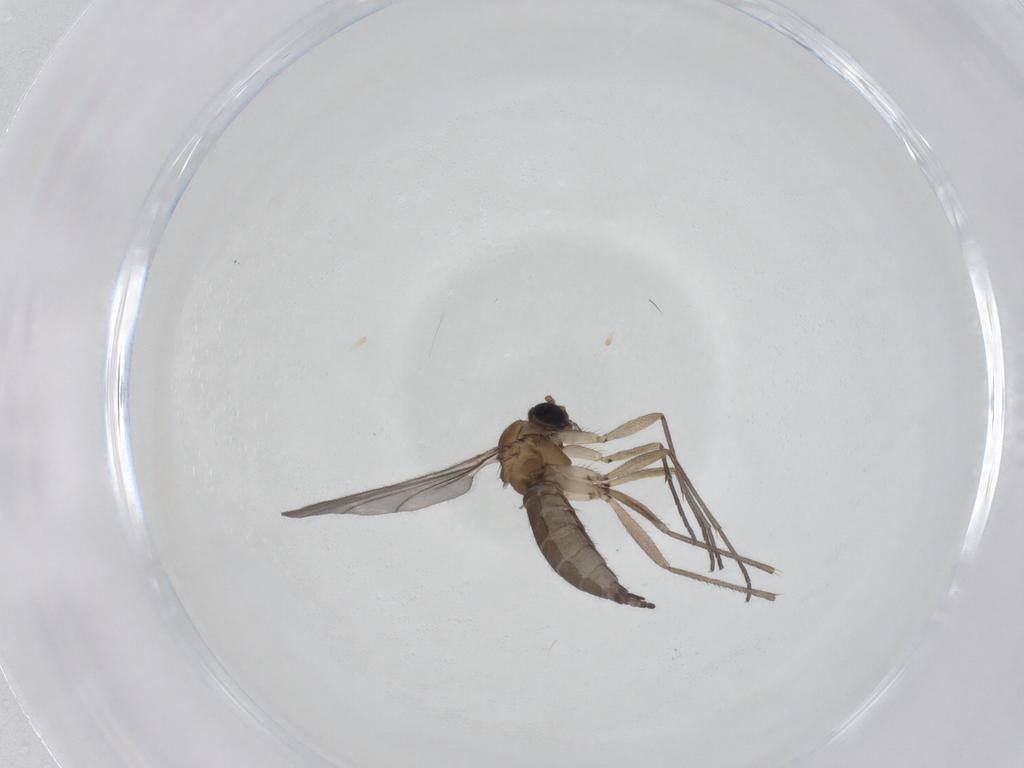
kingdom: Animalia
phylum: Arthropoda
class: Insecta
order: Diptera
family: Sciaridae
